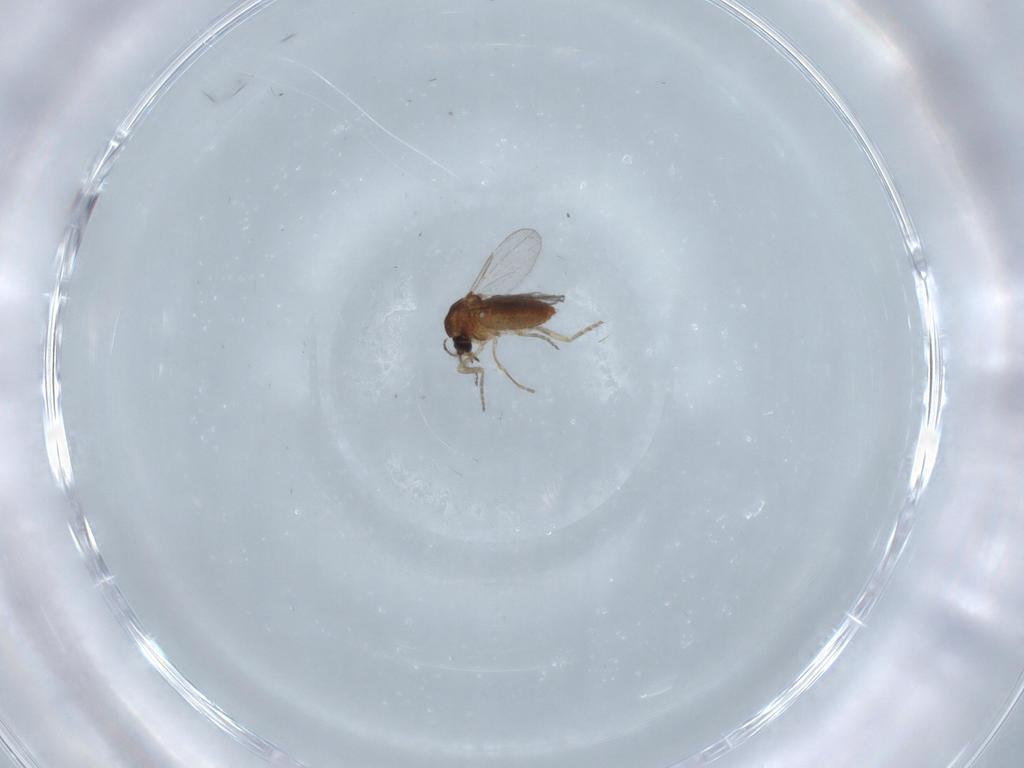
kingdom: Animalia
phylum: Arthropoda
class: Insecta
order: Diptera
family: Ceratopogonidae
